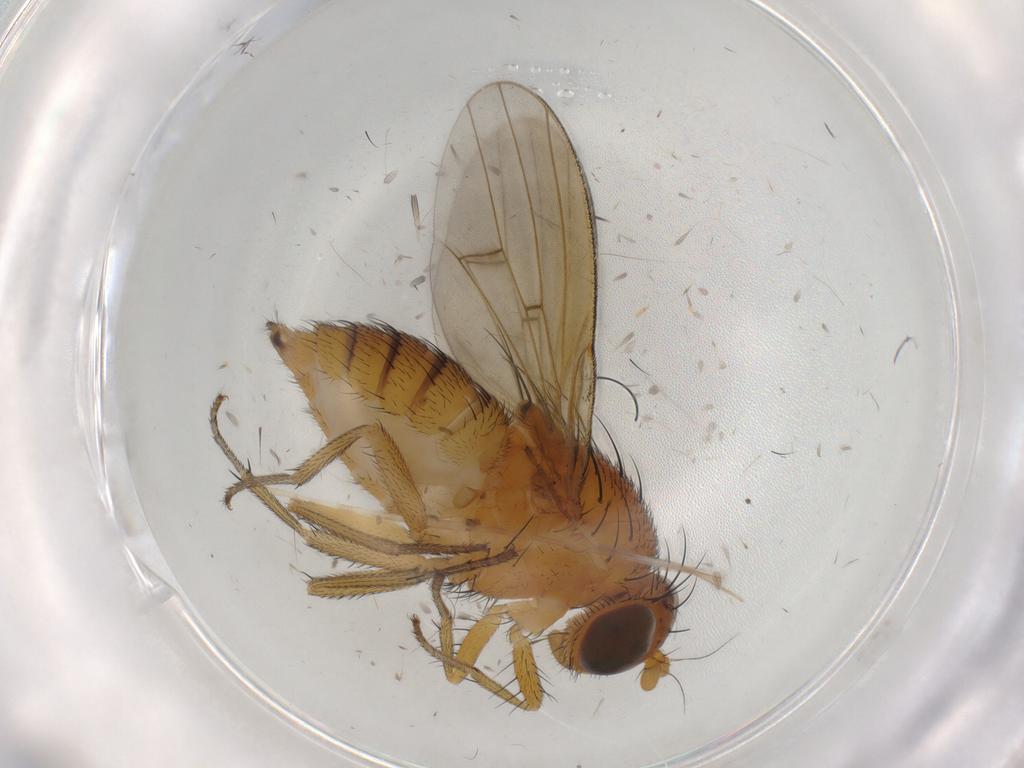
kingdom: Animalia
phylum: Arthropoda
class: Insecta
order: Diptera
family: Limoniidae
